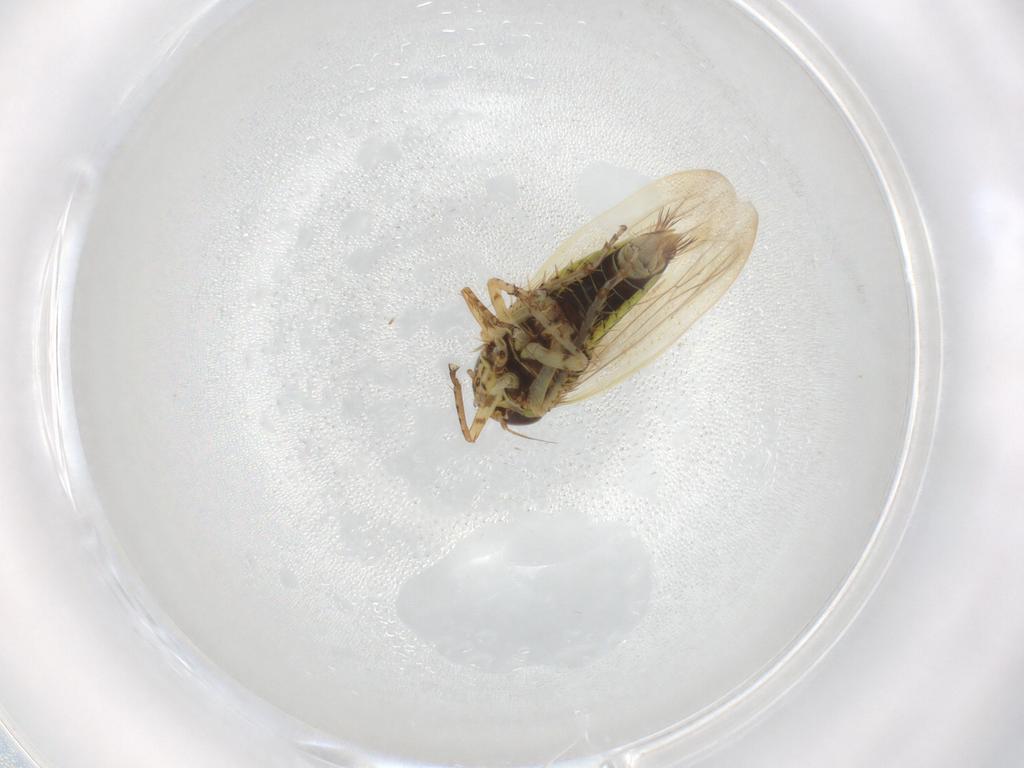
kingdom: Animalia
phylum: Arthropoda
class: Insecta
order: Hemiptera
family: Cicadellidae
